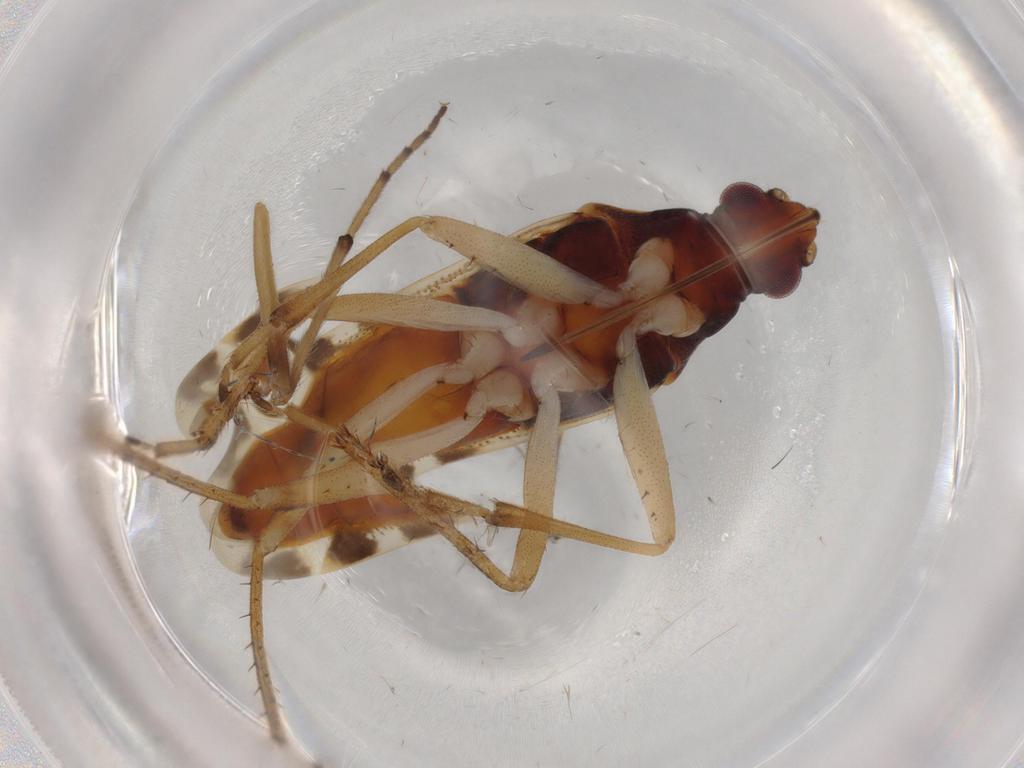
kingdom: Animalia
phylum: Arthropoda
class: Insecta
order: Hemiptera
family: Rhyparochromidae
